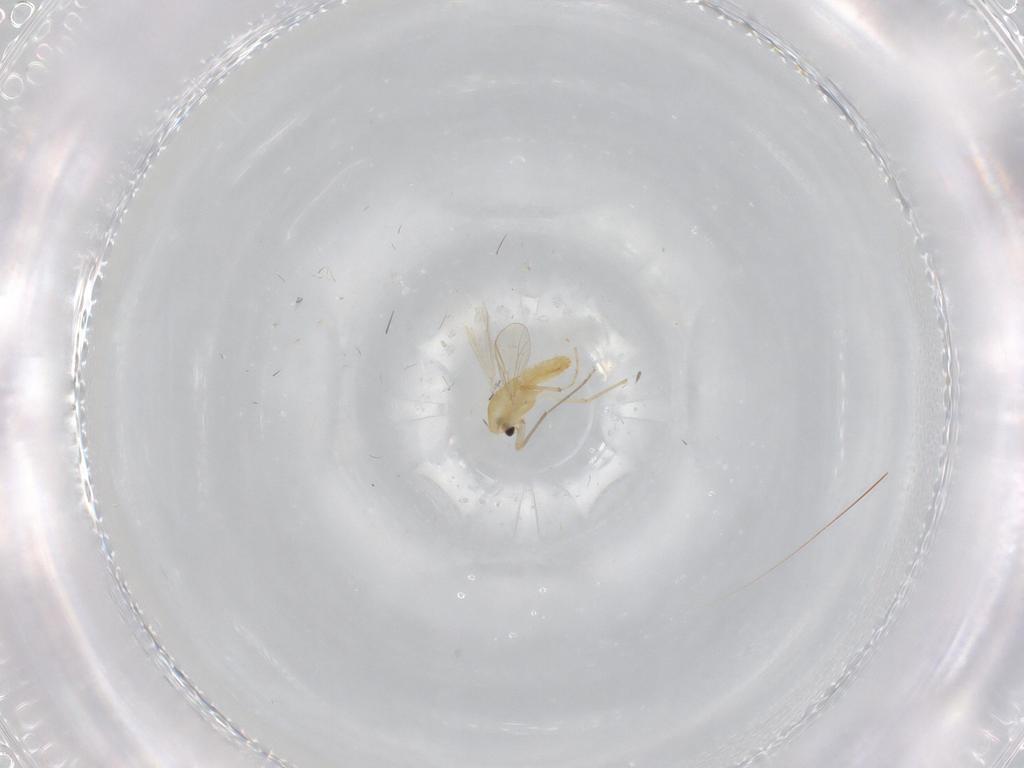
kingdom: Animalia
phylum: Arthropoda
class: Insecta
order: Diptera
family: Chironomidae
